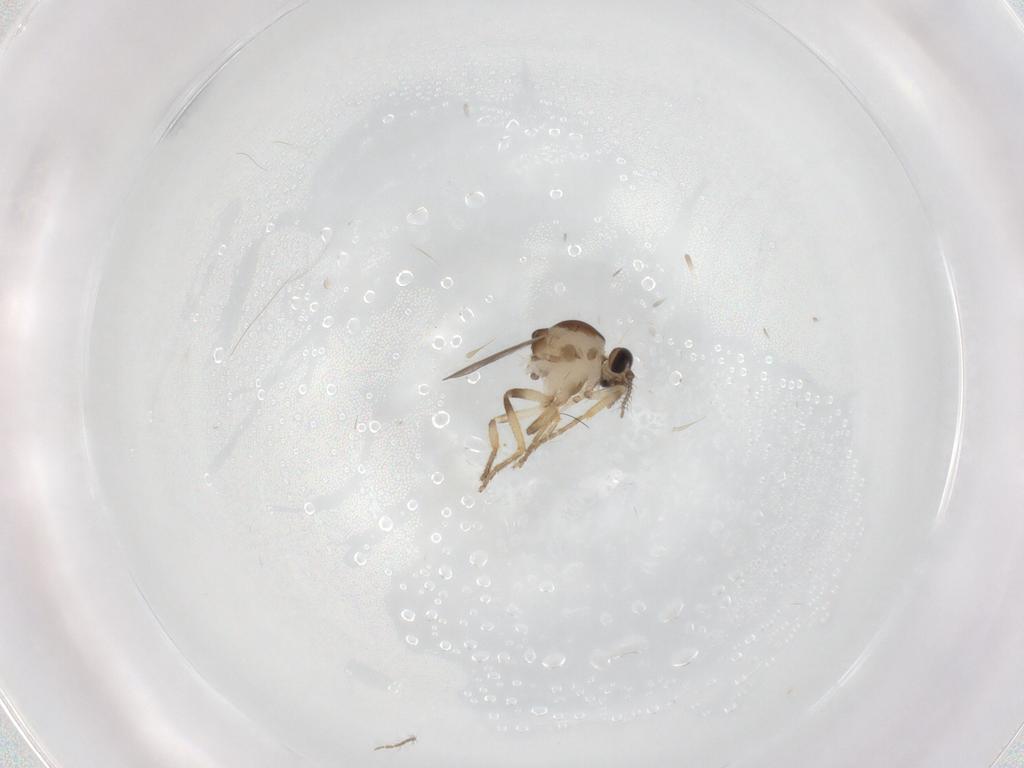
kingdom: Animalia
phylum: Arthropoda
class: Insecta
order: Diptera
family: Ceratopogonidae
